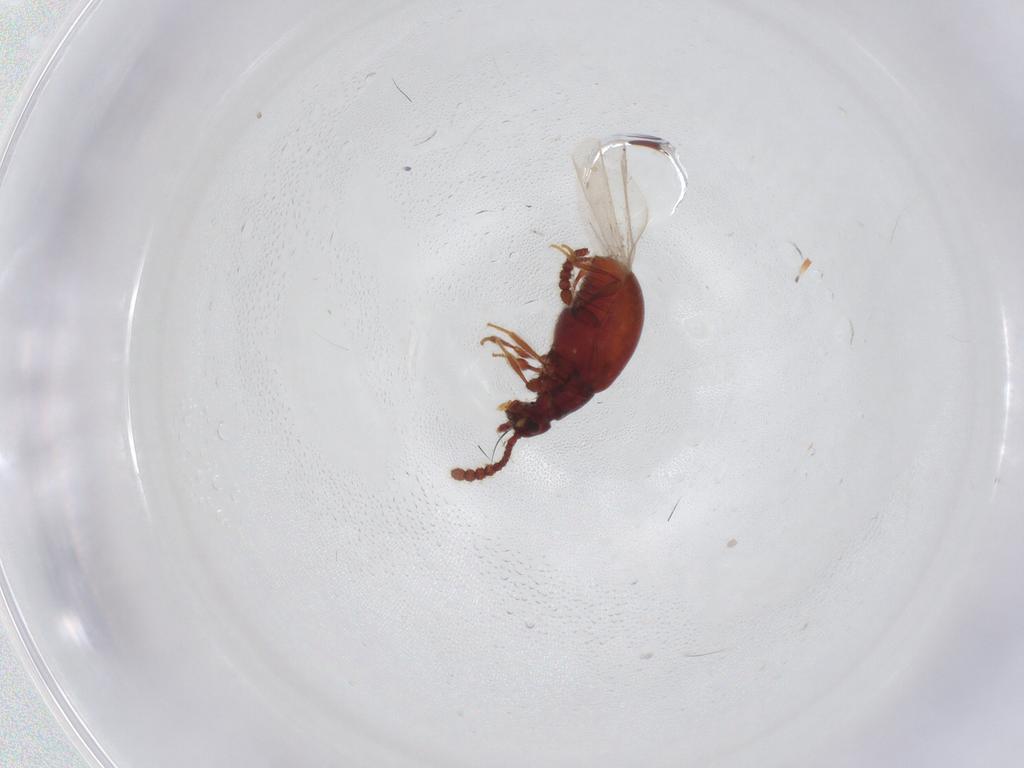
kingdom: Animalia
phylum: Arthropoda
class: Insecta
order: Coleoptera
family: Staphylinidae
